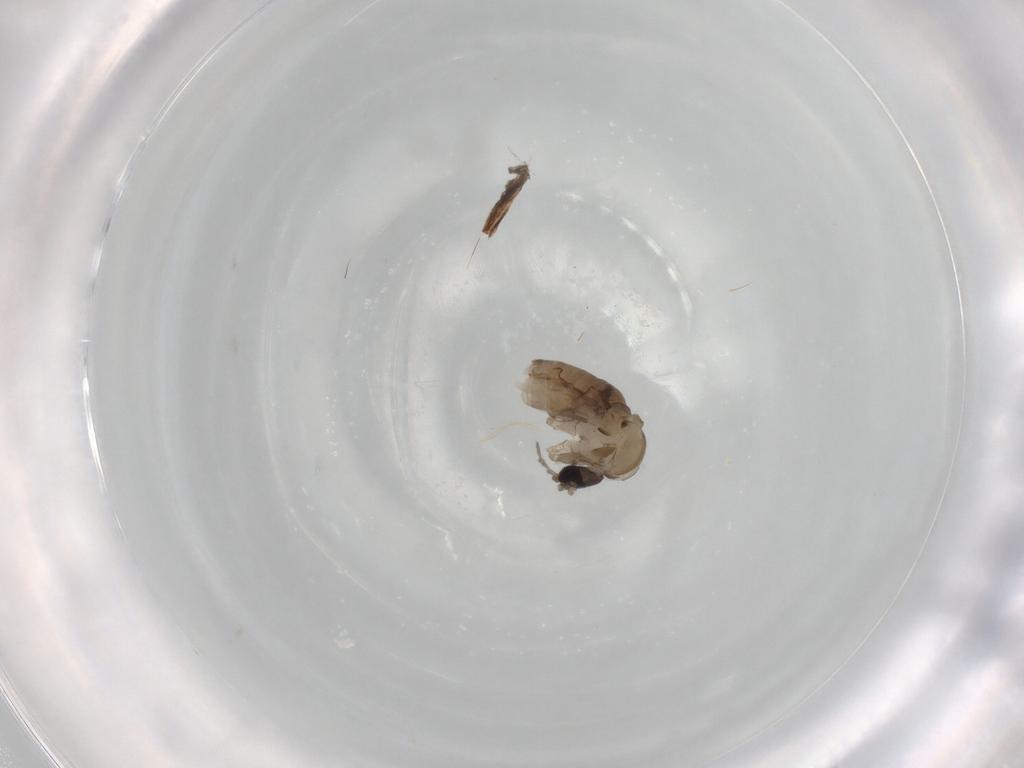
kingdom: Animalia
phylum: Arthropoda
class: Insecta
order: Diptera
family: Psychodidae
